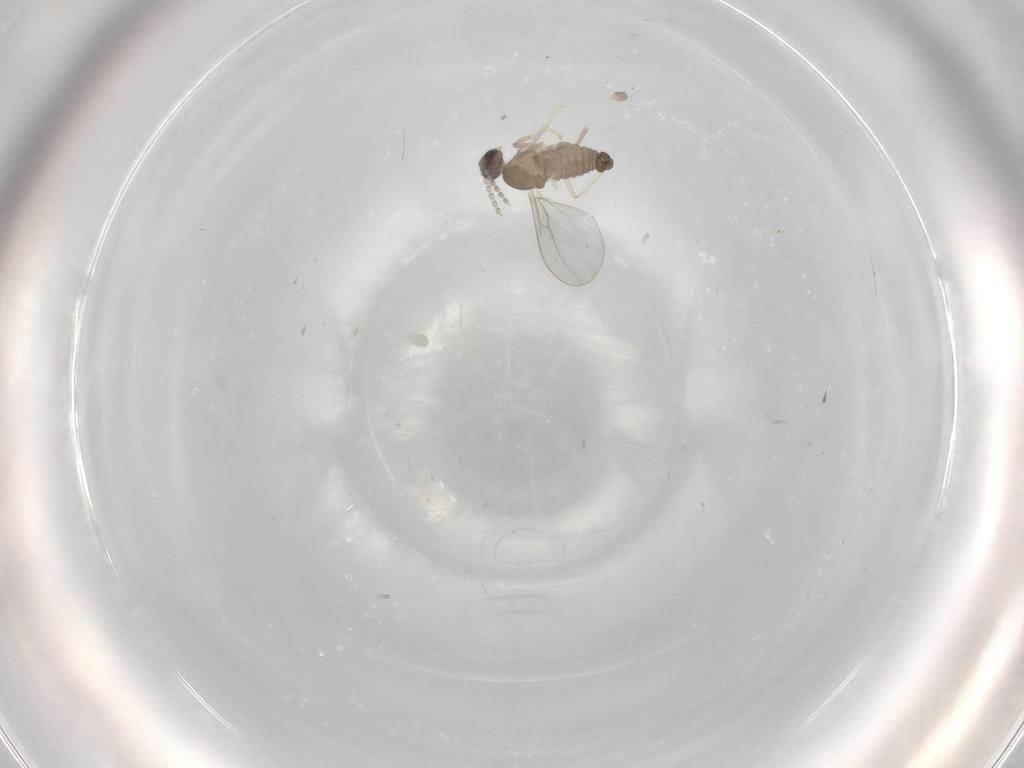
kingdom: Animalia
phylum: Arthropoda
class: Insecta
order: Diptera
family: Cecidomyiidae
